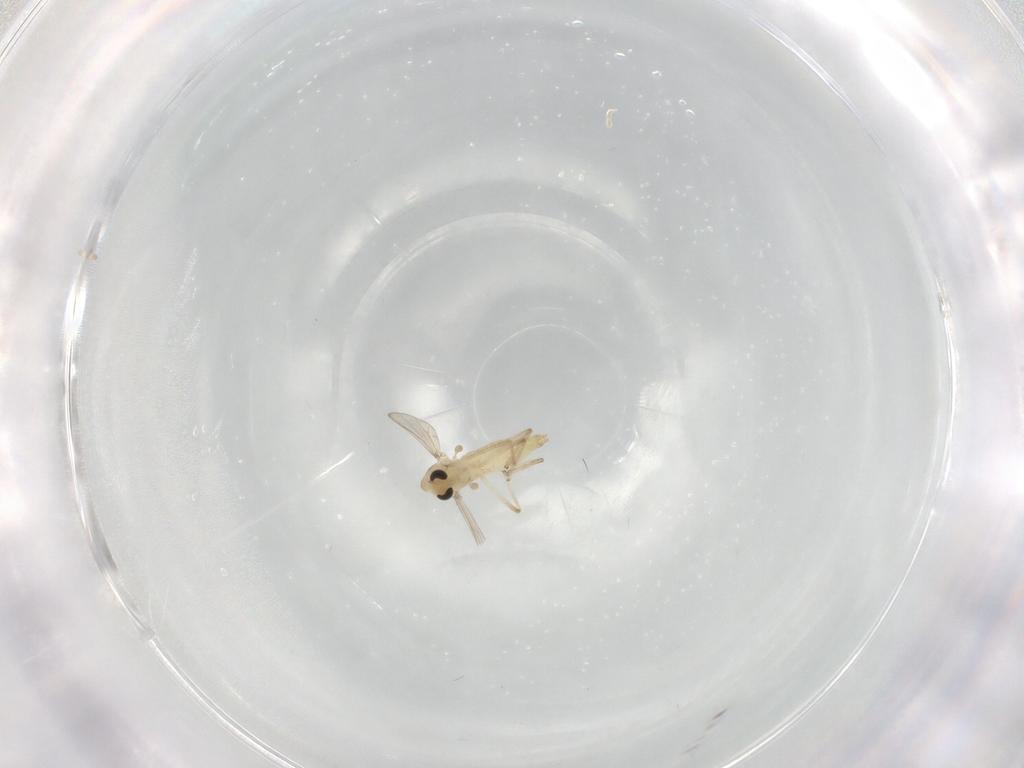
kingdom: Animalia
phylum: Arthropoda
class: Insecta
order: Diptera
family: Chironomidae
